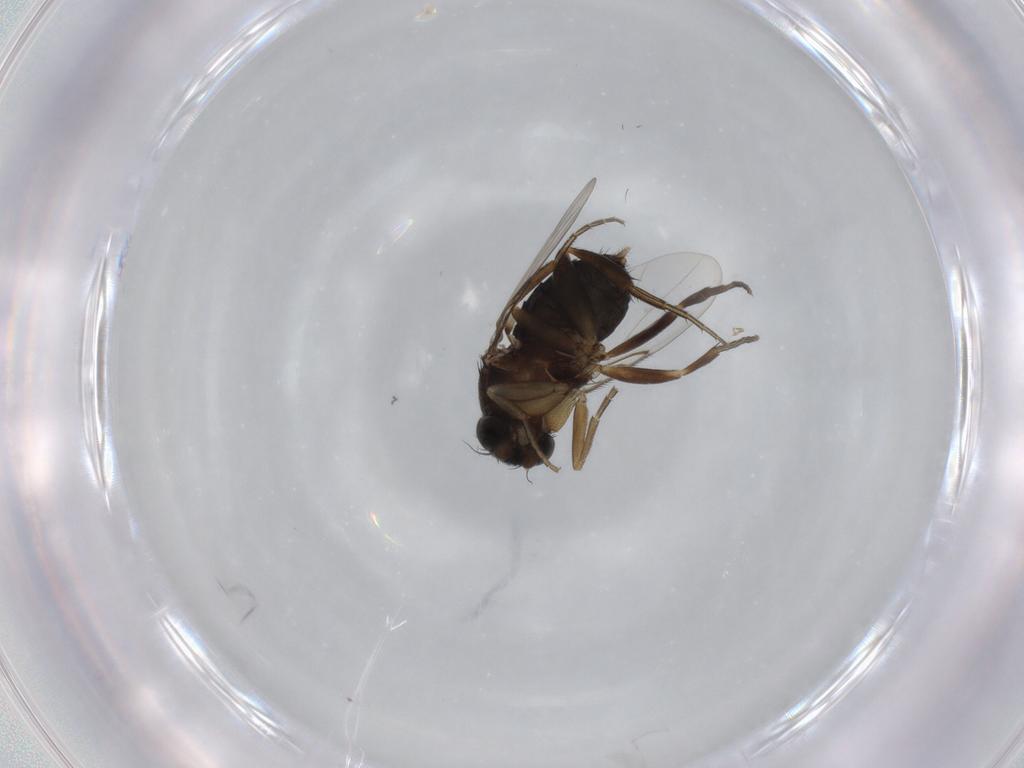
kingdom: Animalia
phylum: Arthropoda
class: Insecta
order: Diptera
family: Phoridae
